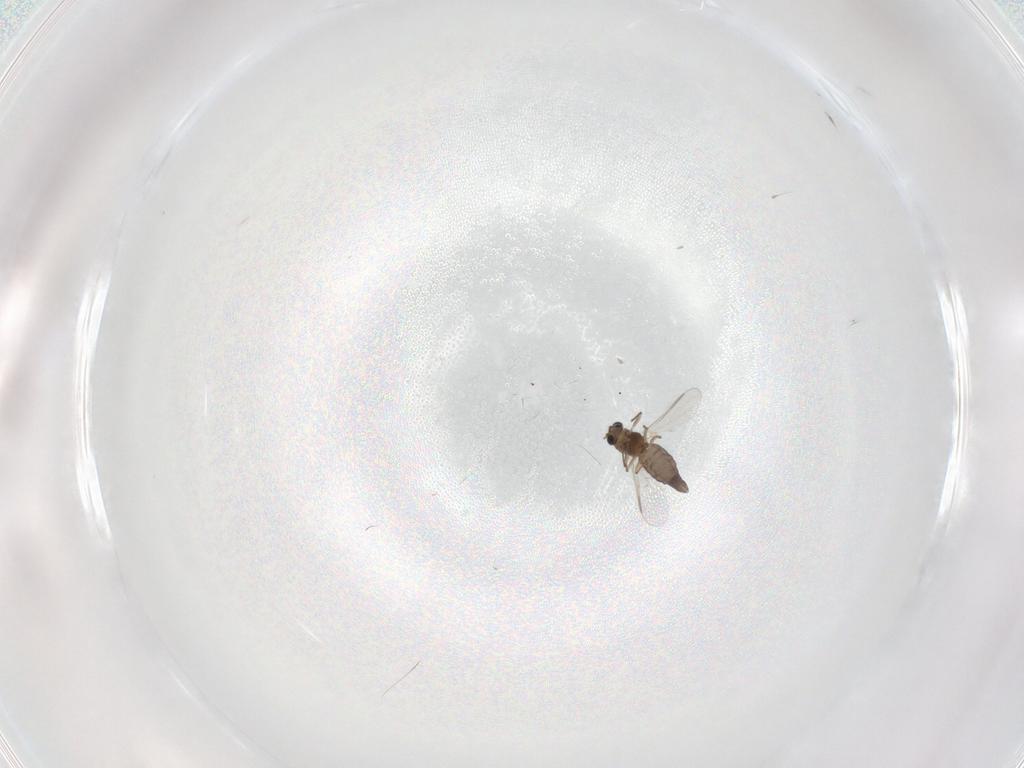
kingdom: Animalia
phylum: Arthropoda
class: Insecta
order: Diptera
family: Chironomidae
